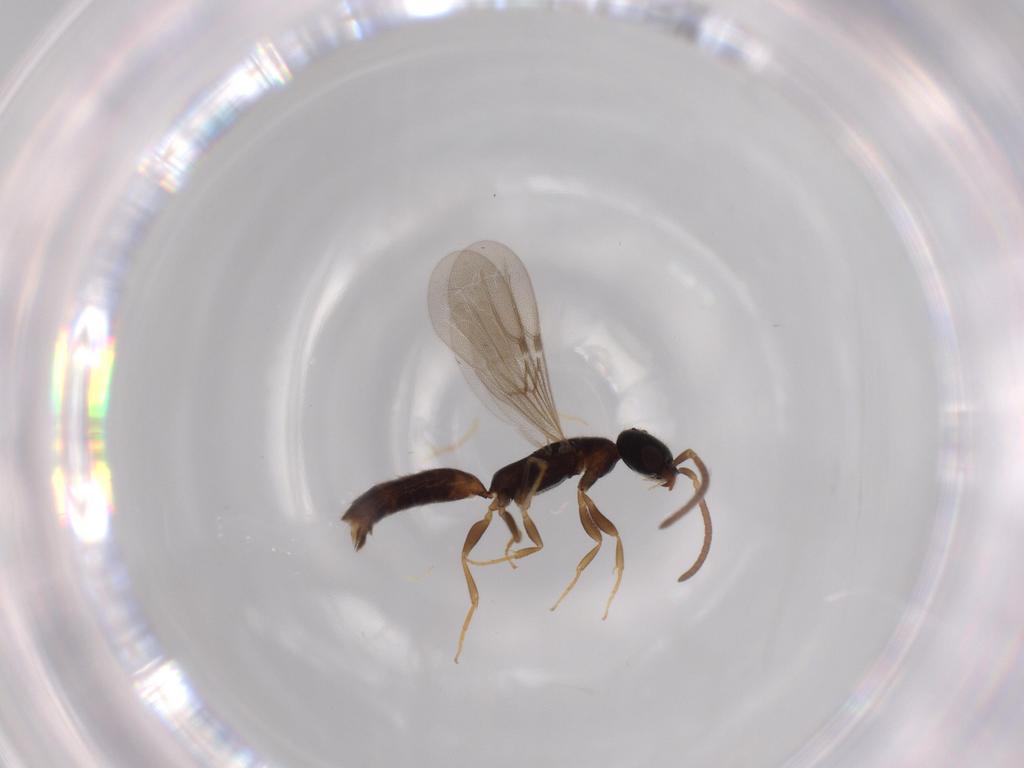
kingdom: Animalia
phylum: Arthropoda
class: Insecta
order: Hymenoptera
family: Bethylidae
